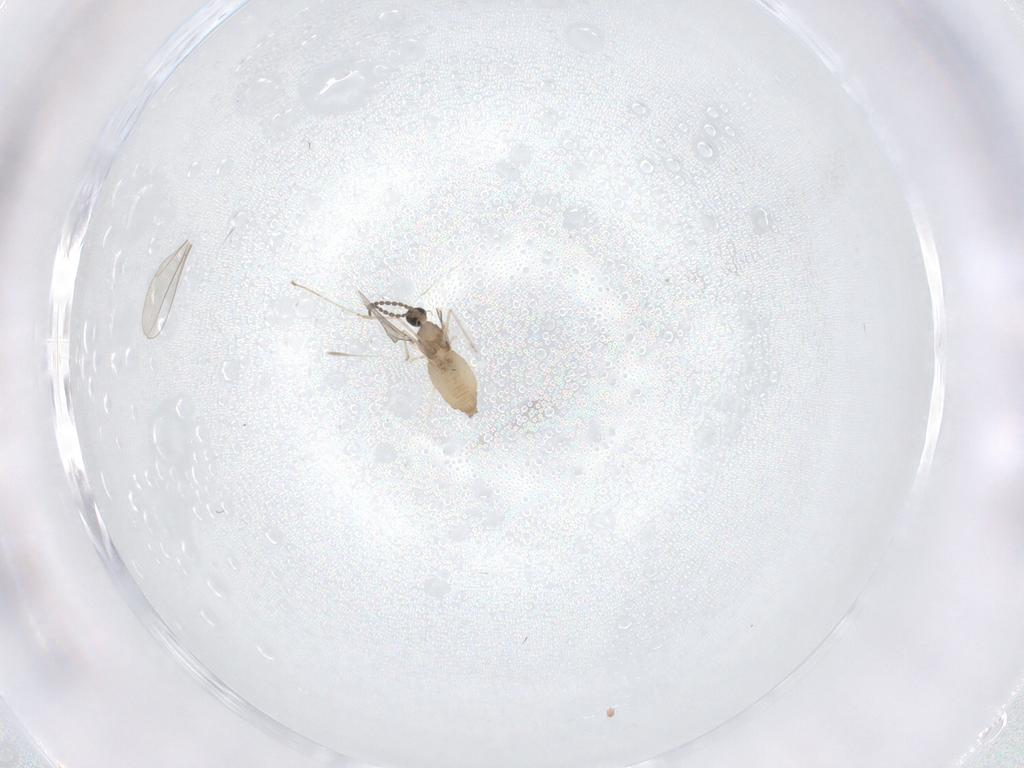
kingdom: Animalia
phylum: Arthropoda
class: Insecta
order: Diptera
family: Cecidomyiidae
